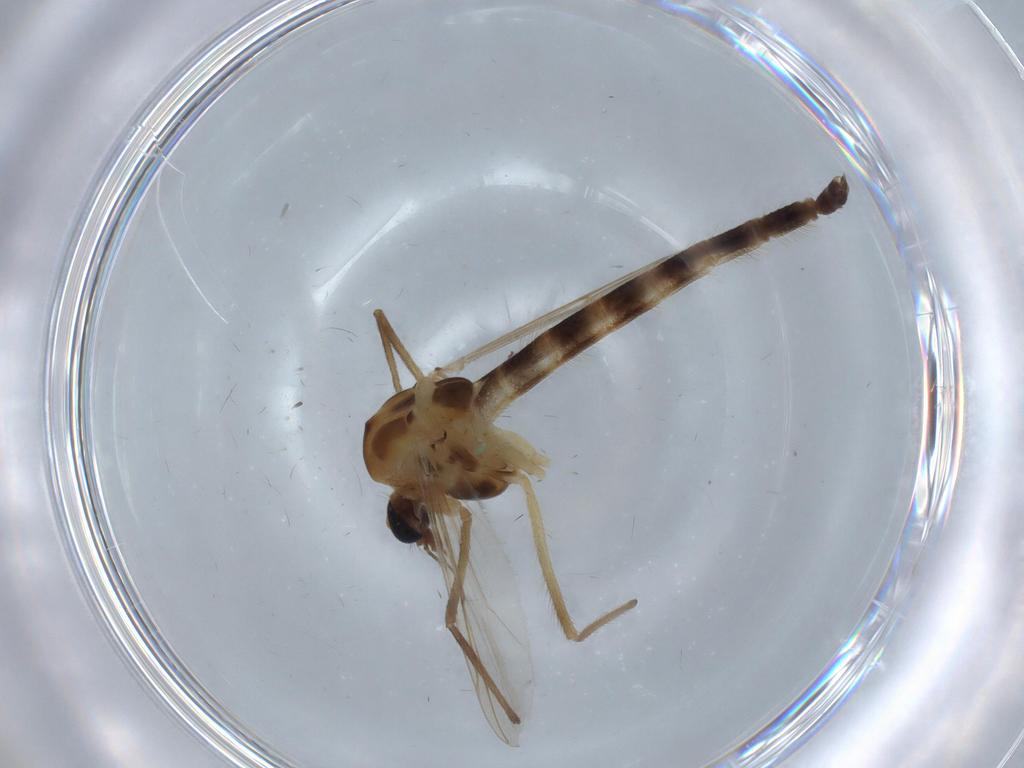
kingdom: Animalia
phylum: Arthropoda
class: Insecta
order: Diptera
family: Chironomidae
